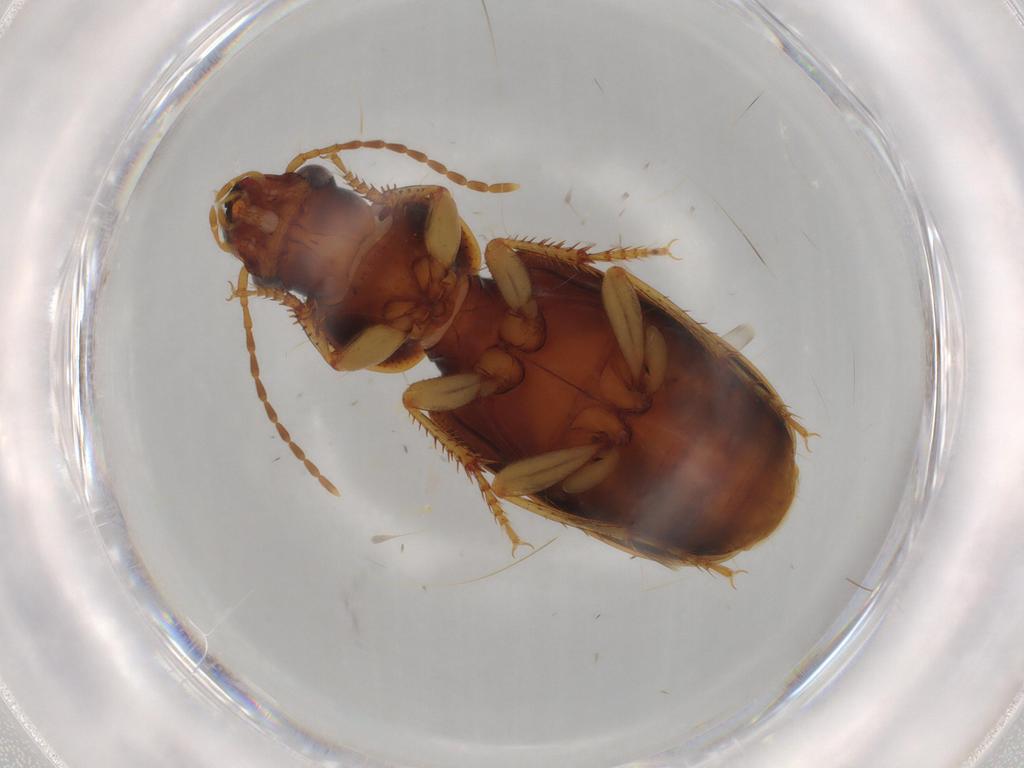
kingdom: Animalia
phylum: Arthropoda
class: Insecta
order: Coleoptera
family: Carabidae
